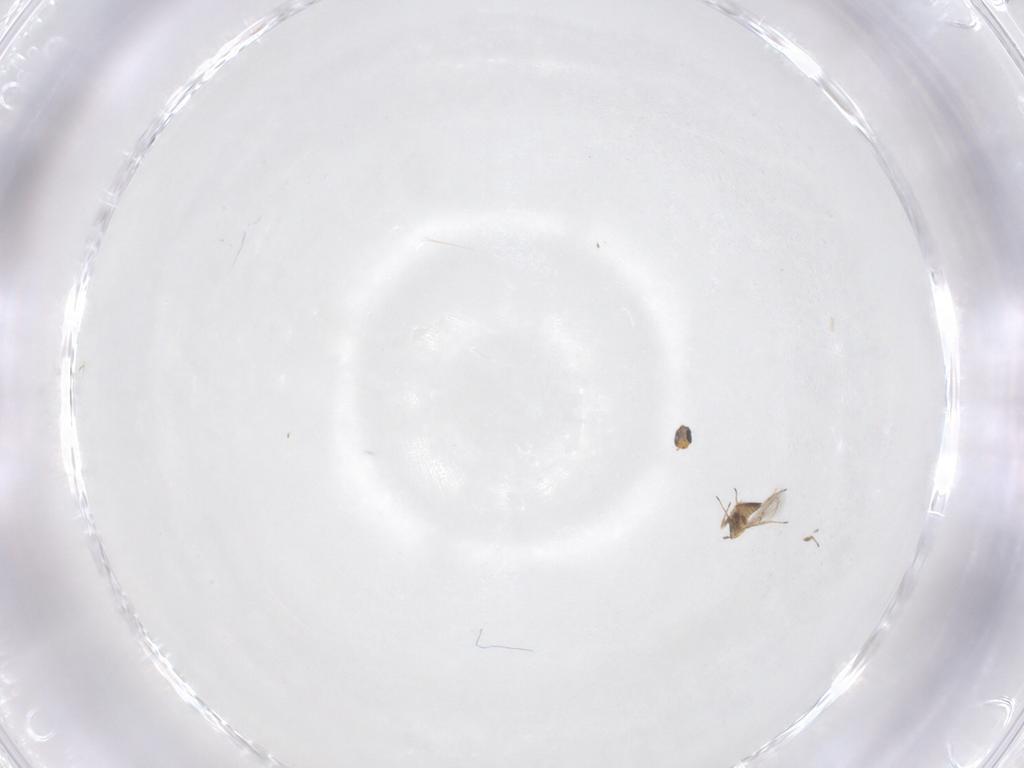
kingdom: Animalia
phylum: Arthropoda
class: Insecta
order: Hymenoptera
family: Trichogrammatidae
